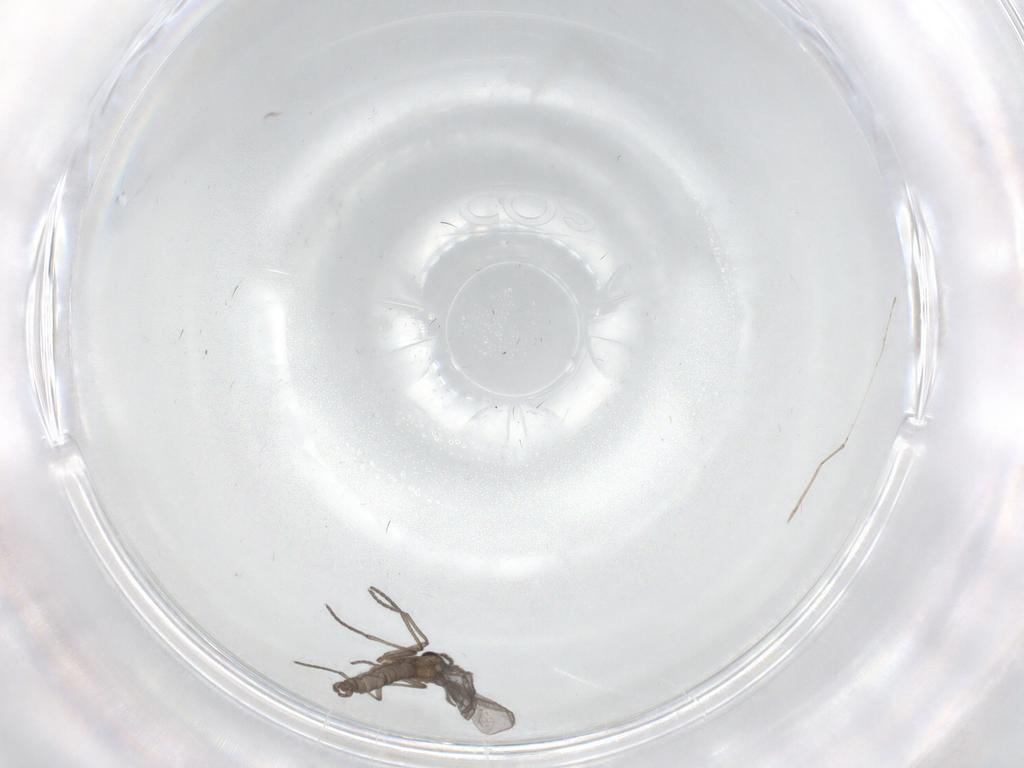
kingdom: Animalia
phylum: Arthropoda
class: Insecta
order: Diptera
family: Sciaridae
